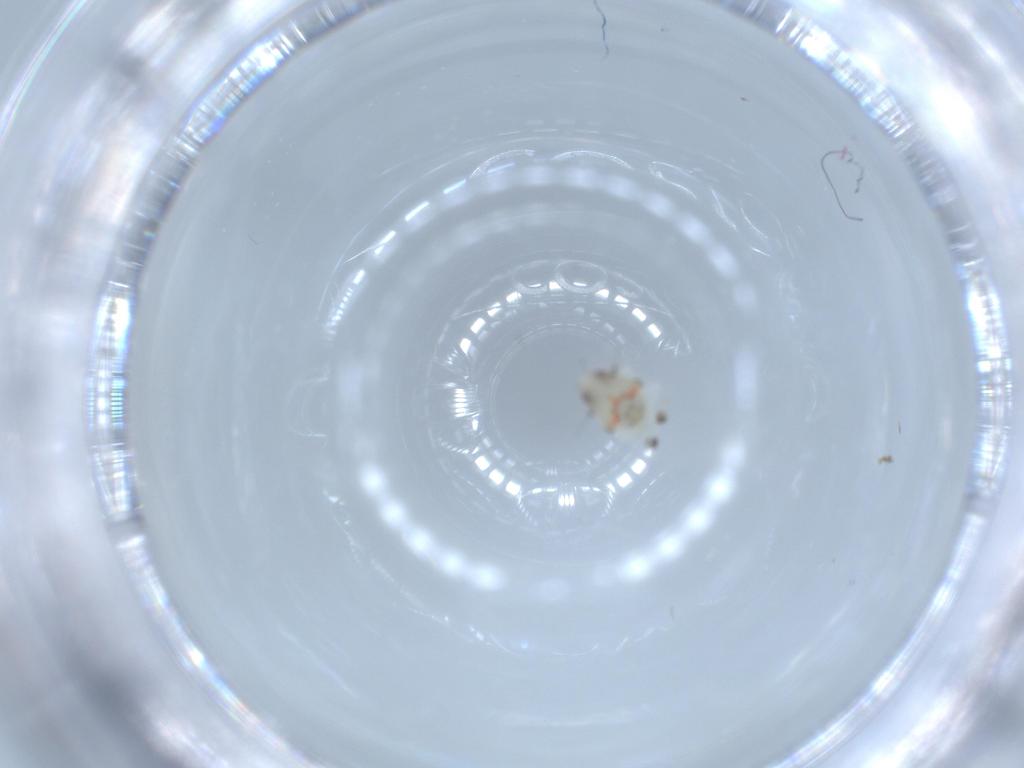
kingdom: Animalia
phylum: Arthropoda
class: Insecta
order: Hemiptera
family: Nogodinidae
